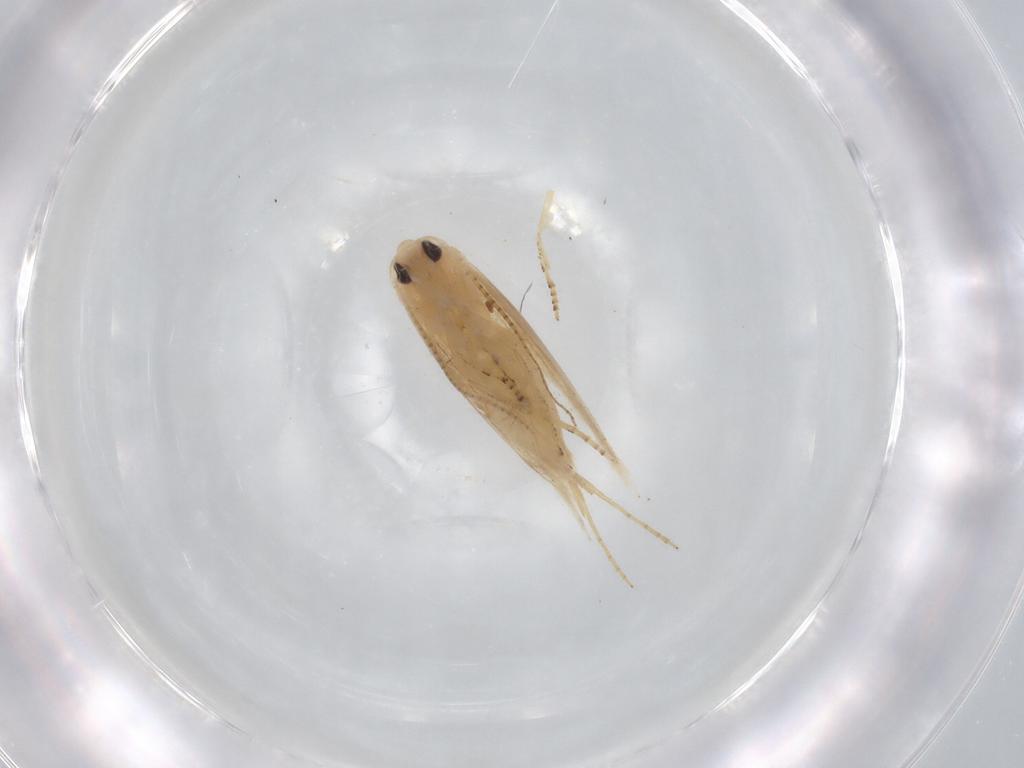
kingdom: Animalia
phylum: Arthropoda
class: Insecta
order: Lepidoptera
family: Bucculatricidae
